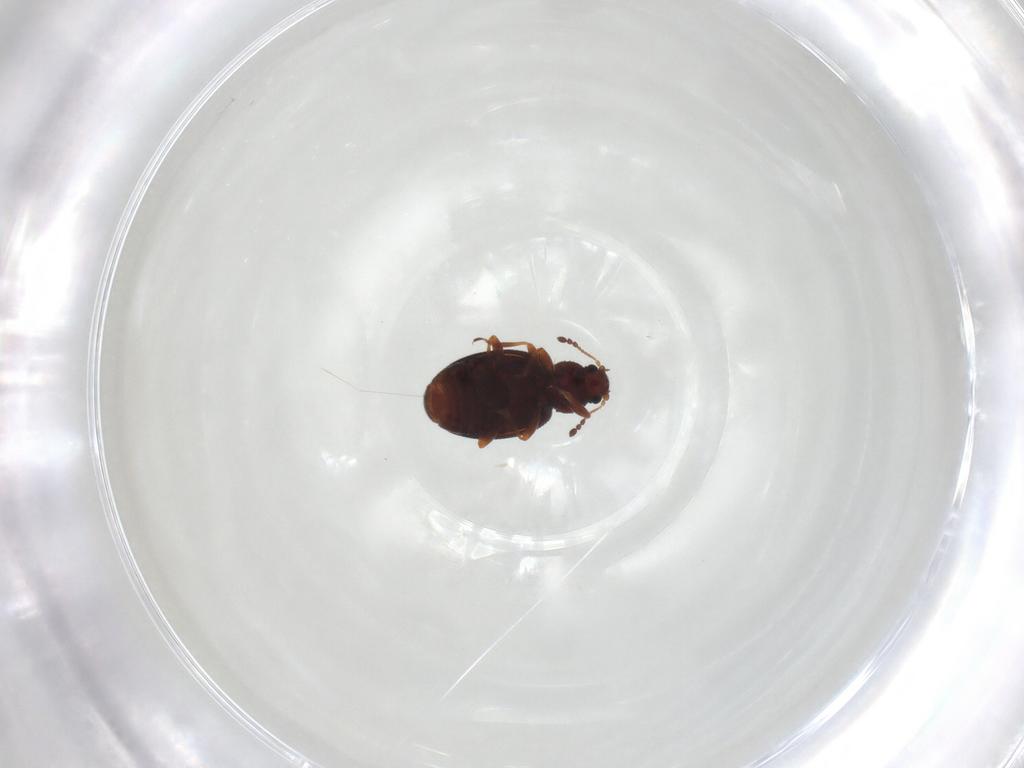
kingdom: Animalia
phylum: Arthropoda
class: Insecta
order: Coleoptera
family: Latridiidae
